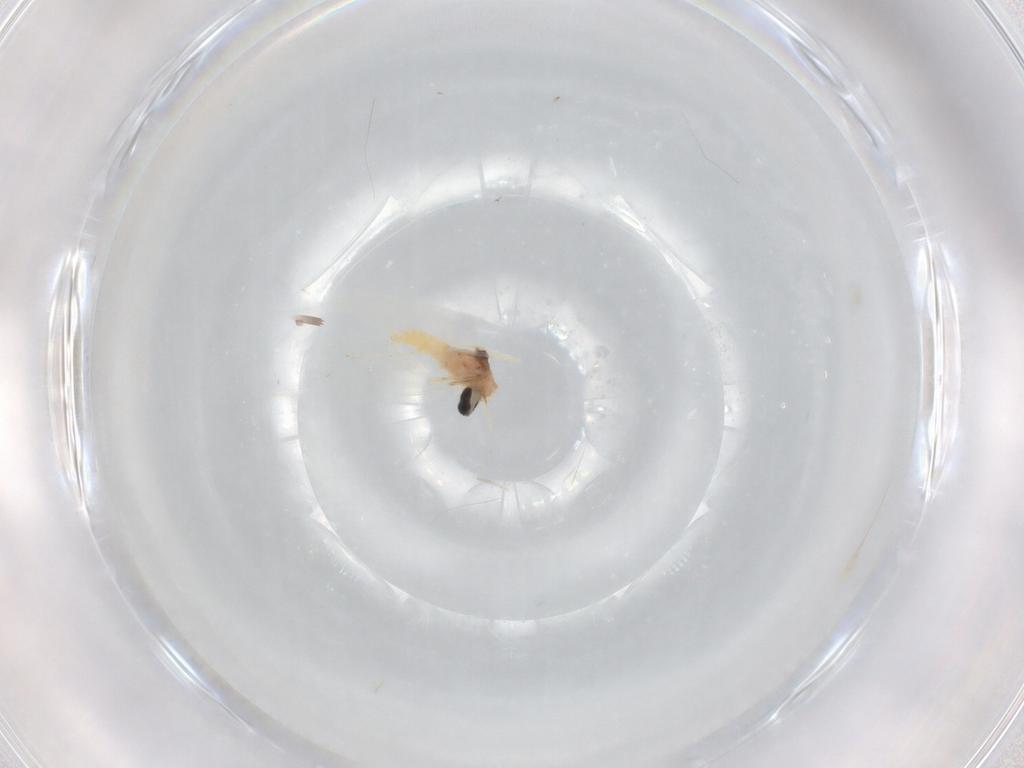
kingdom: Animalia
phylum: Arthropoda
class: Insecta
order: Diptera
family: Cecidomyiidae
